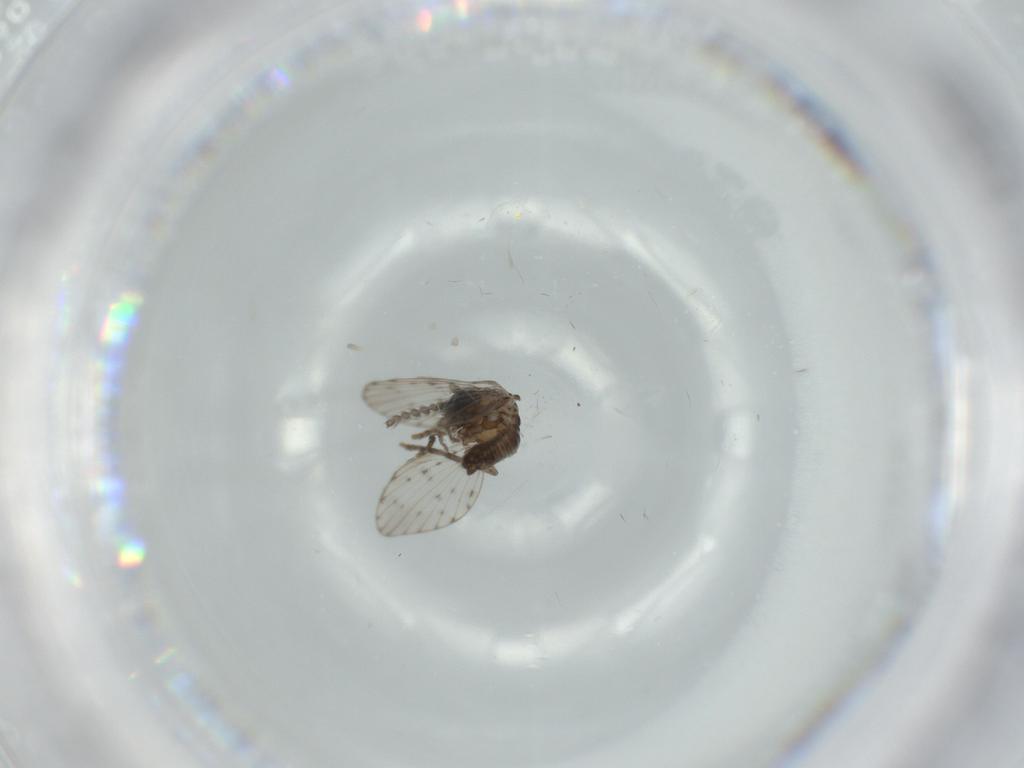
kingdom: Animalia
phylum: Arthropoda
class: Insecta
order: Diptera
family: Psychodidae
